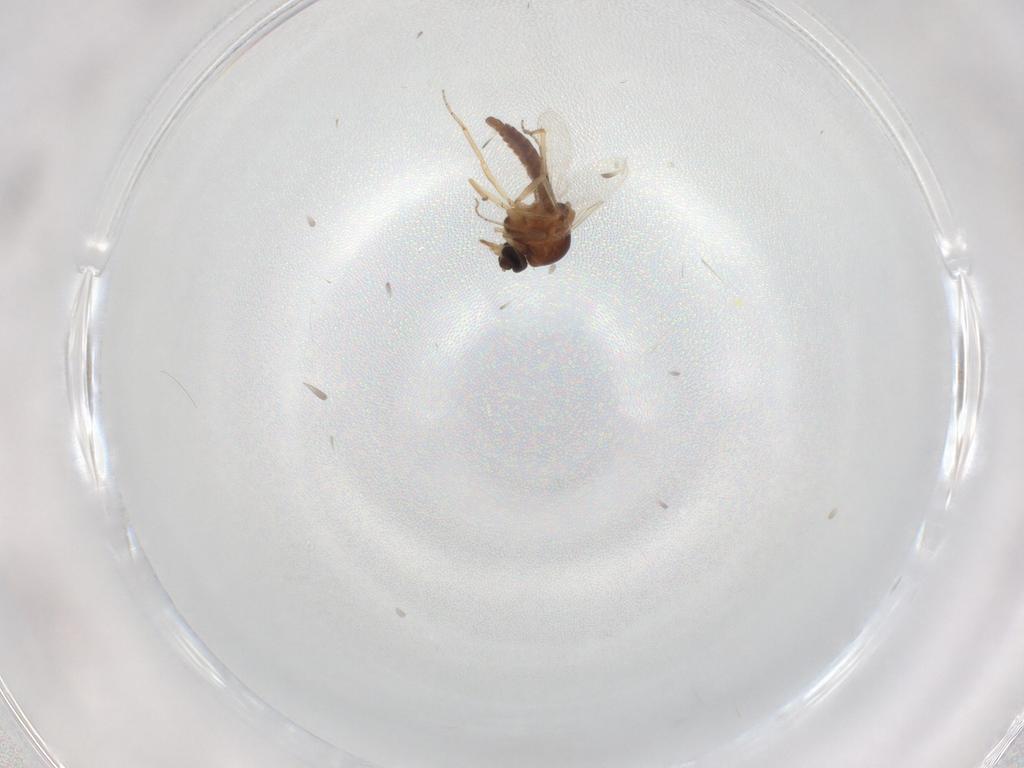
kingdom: Animalia
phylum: Arthropoda
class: Insecta
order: Diptera
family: Ceratopogonidae
